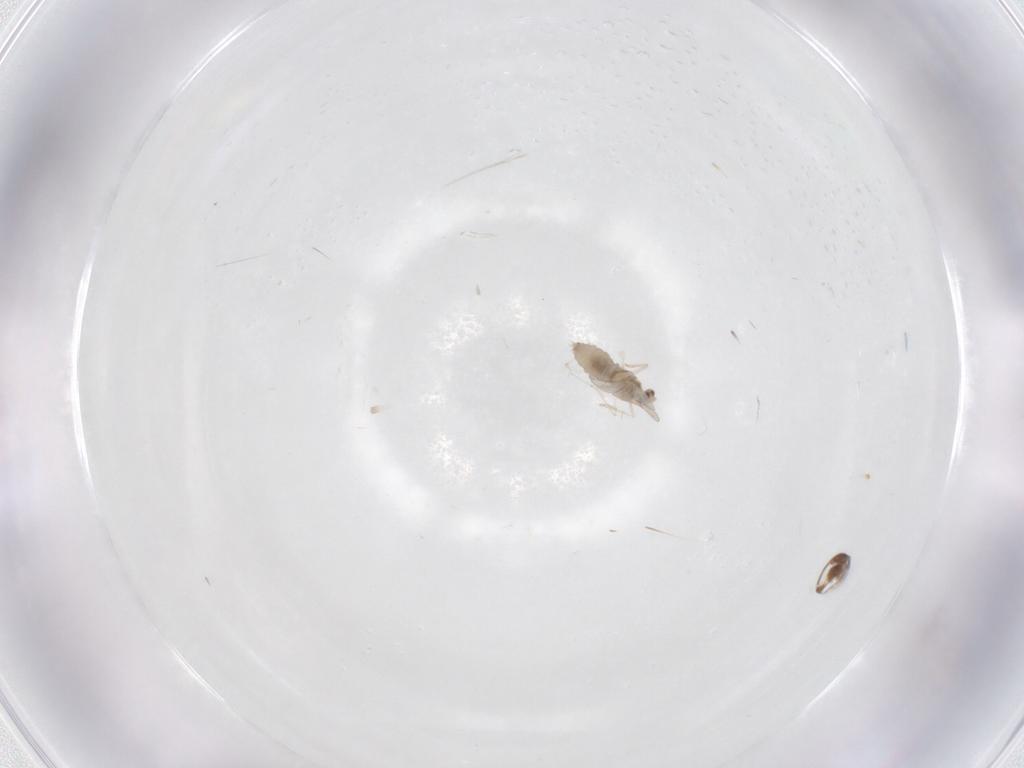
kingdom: Animalia
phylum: Arthropoda
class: Insecta
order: Diptera
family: Cecidomyiidae
